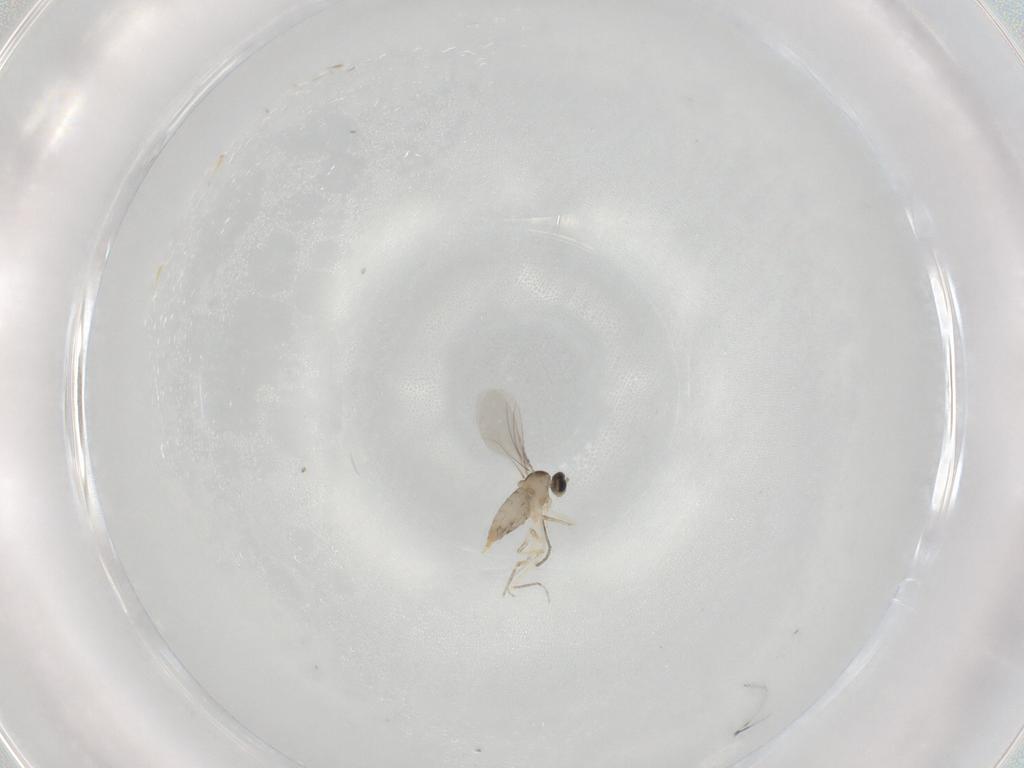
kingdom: Animalia
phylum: Arthropoda
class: Insecta
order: Diptera
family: Cecidomyiidae
